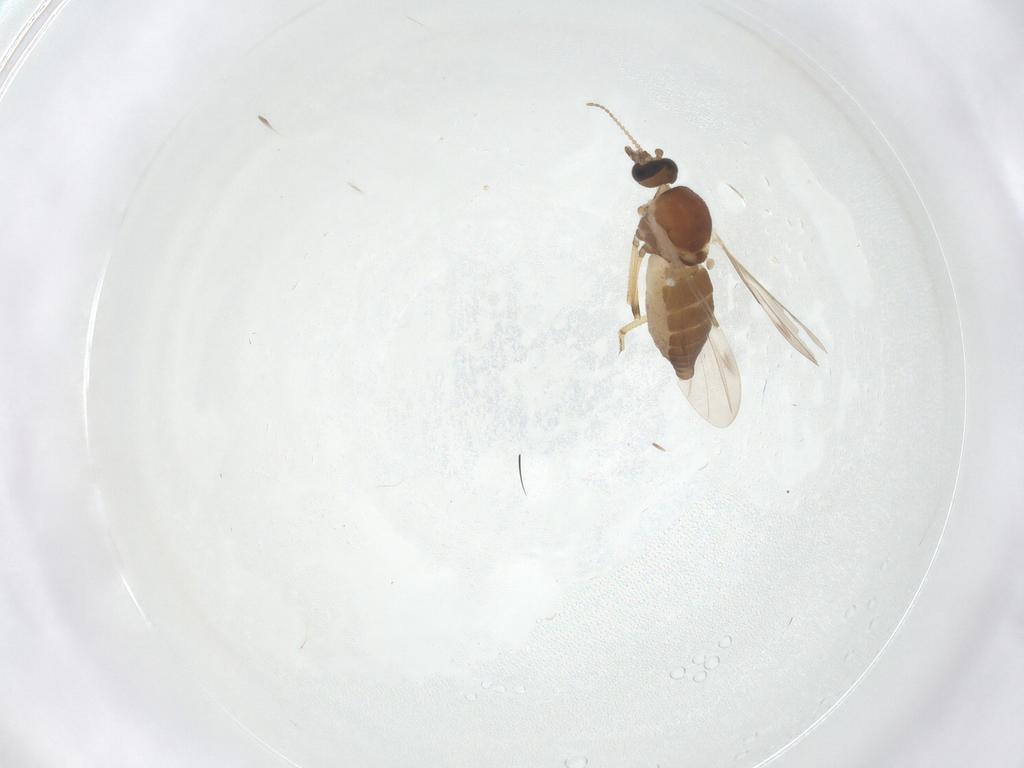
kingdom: Animalia
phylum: Arthropoda
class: Insecta
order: Diptera
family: Ceratopogonidae
